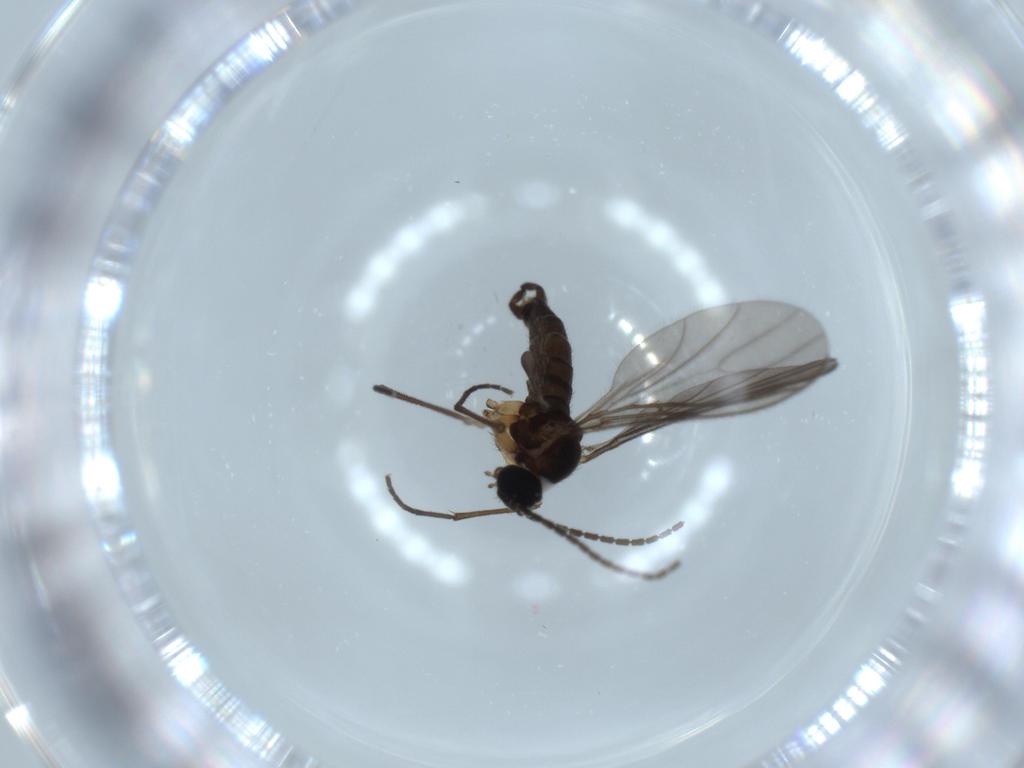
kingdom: Animalia
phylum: Arthropoda
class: Insecta
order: Diptera
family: Sciaridae
